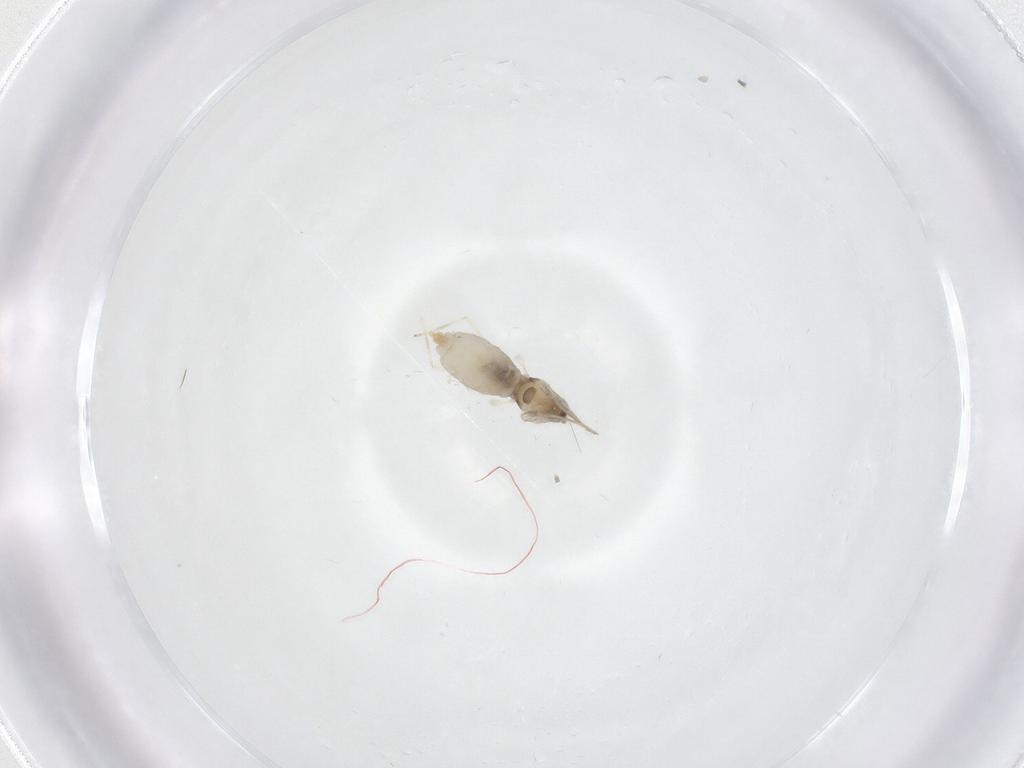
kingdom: Animalia
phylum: Arthropoda
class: Insecta
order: Diptera
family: Cecidomyiidae
